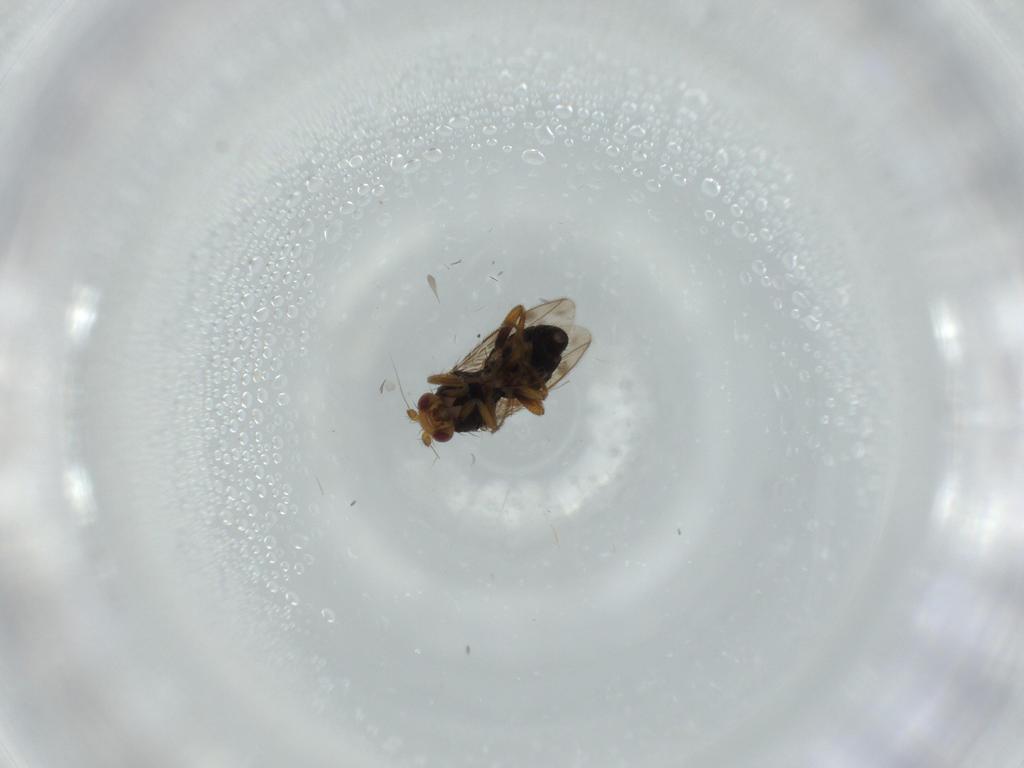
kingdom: Animalia
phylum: Arthropoda
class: Insecta
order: Diptera
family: Sphaeroceridae
